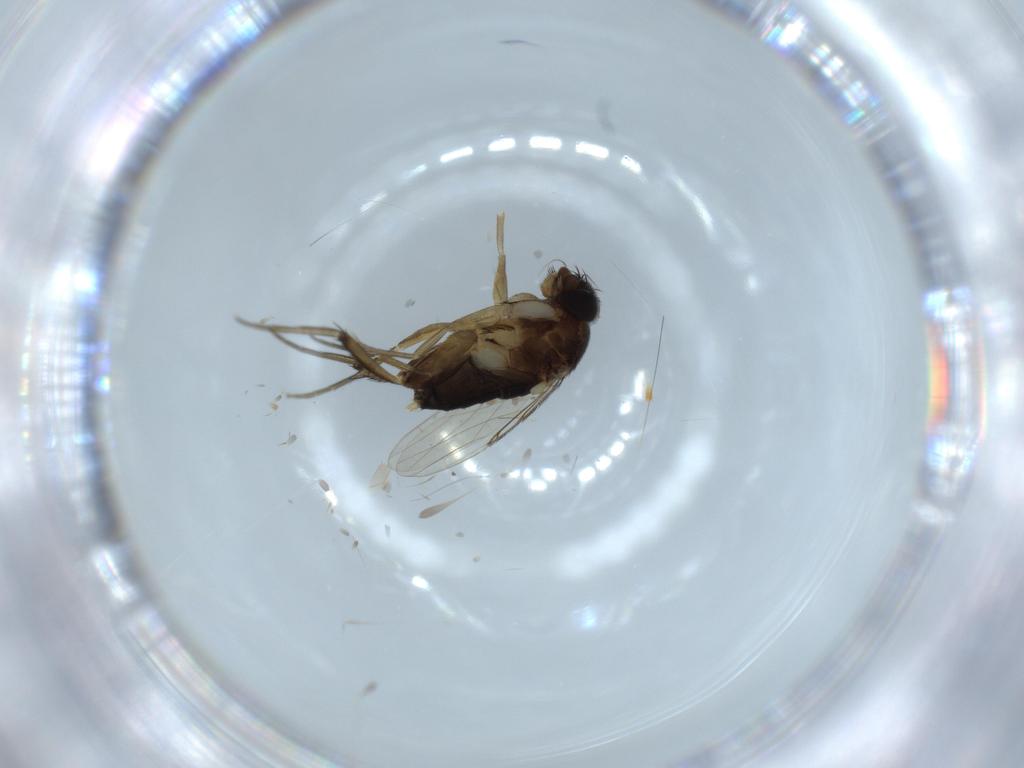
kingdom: Animalia
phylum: Arthropoda
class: Insecta
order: Diptera
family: Phoridae
